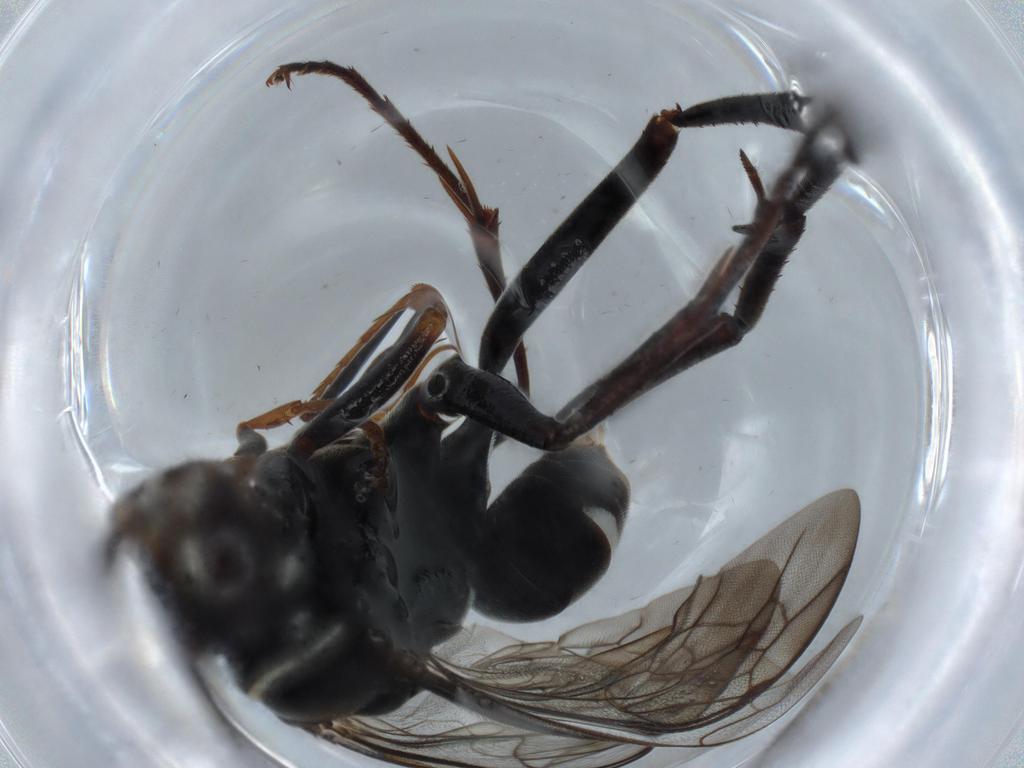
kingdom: Animalia
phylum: Arthropoda
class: Insecta
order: Hymenoptera
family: Pompilidae
